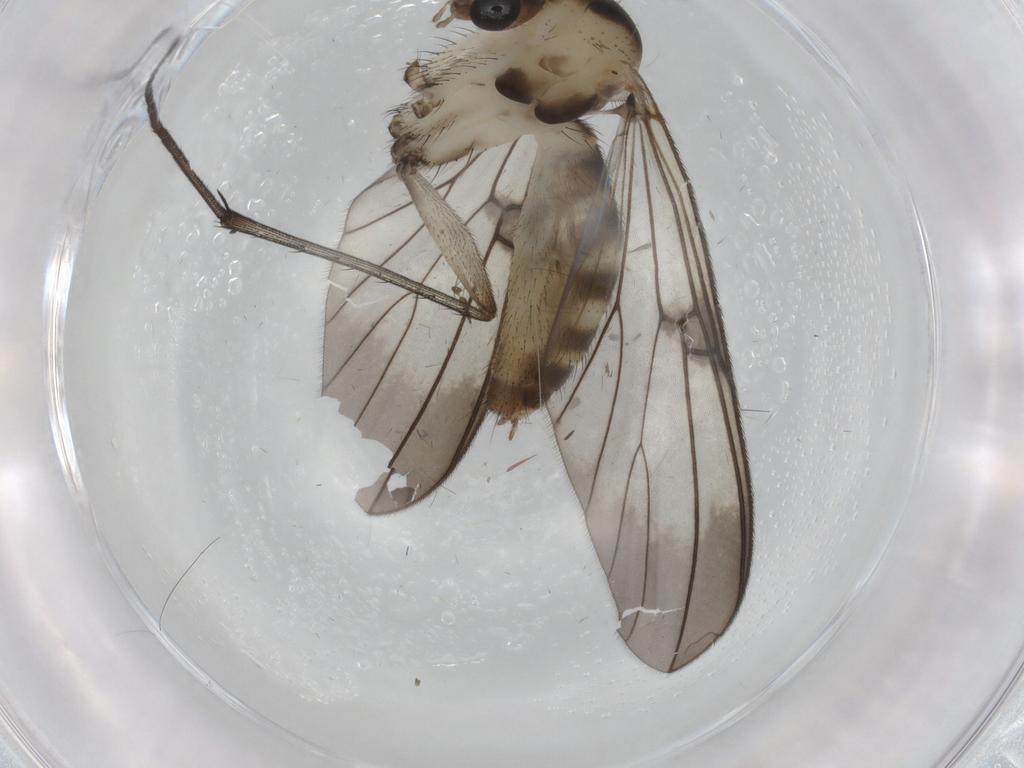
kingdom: Animalia
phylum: Arthropoda
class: Insecta
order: Diptera
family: Mycetophilidae
